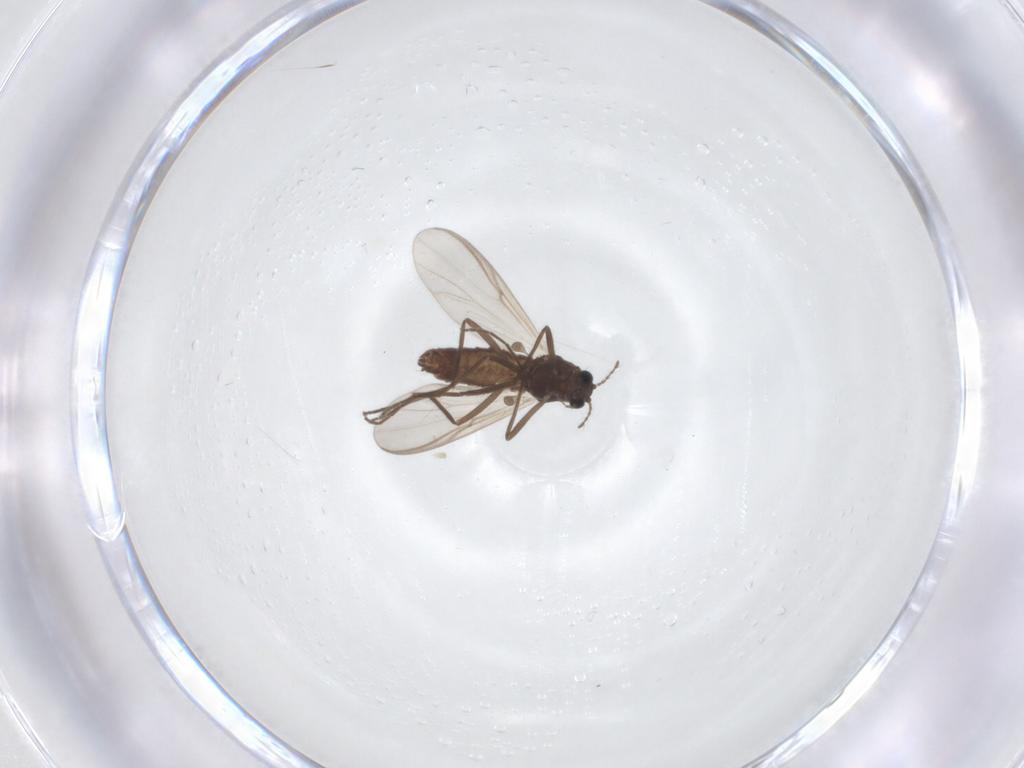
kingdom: Animalia
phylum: Arthropoda
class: Insecta
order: Diptera
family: Chironomidae
